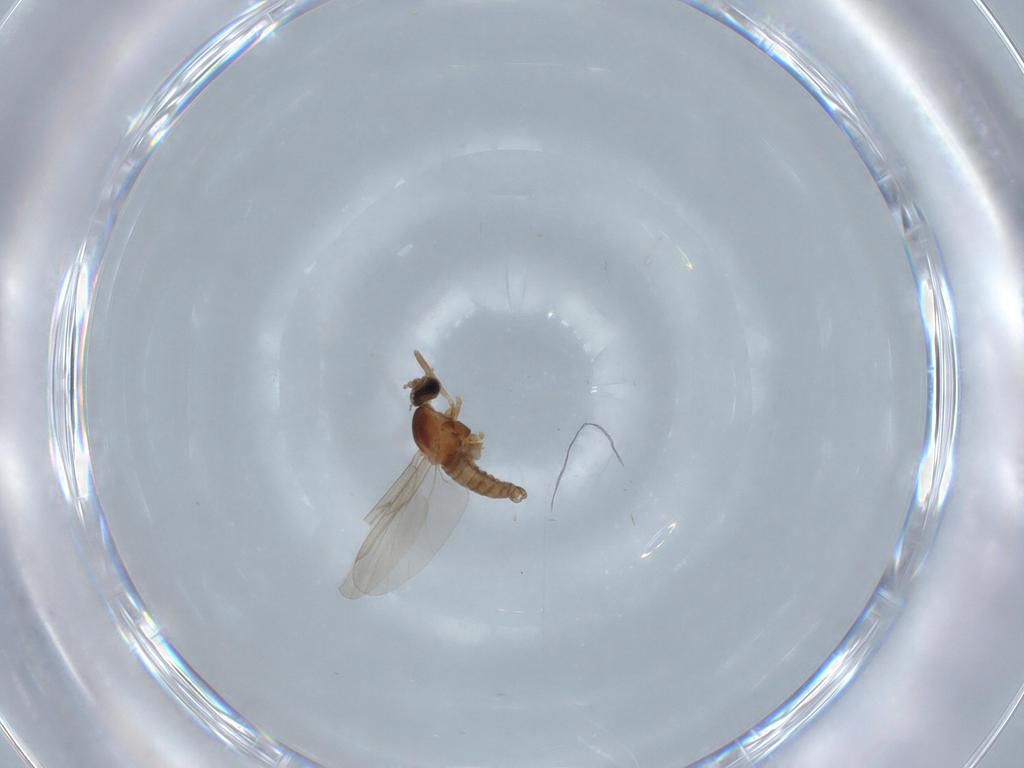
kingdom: Animalia
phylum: Arthropoda
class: Insecta
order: Diptera
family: Cecidomyiidae
